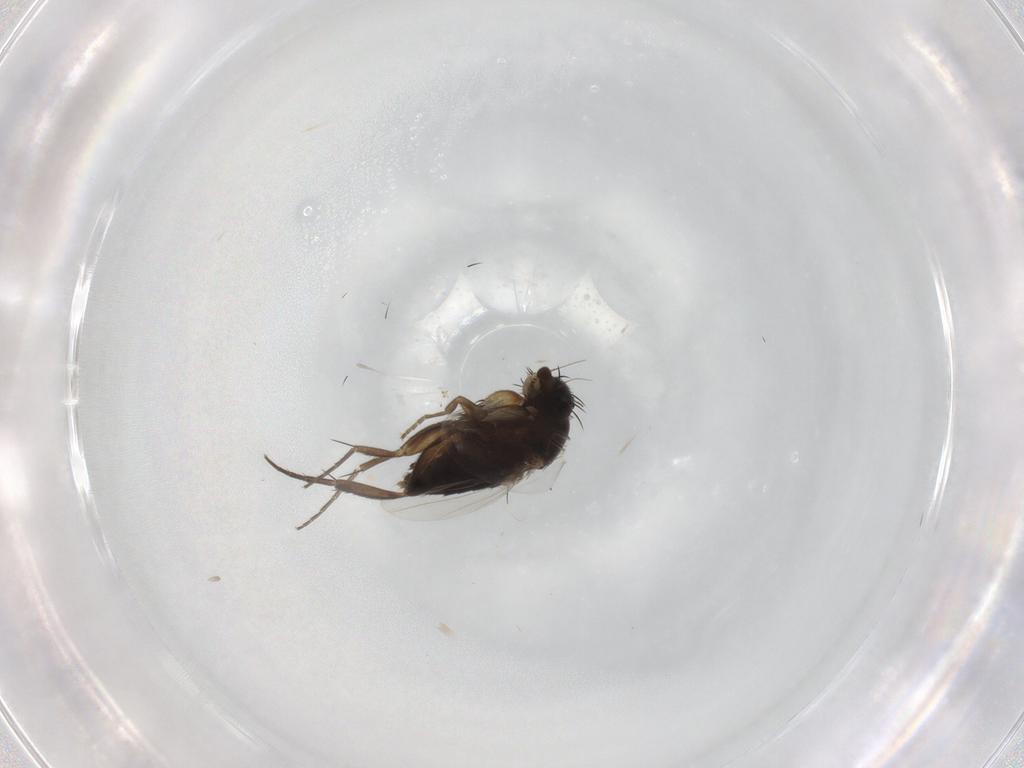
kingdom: Animalia
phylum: Arthropoda
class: Insecta
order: Diptera
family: Phoridae
